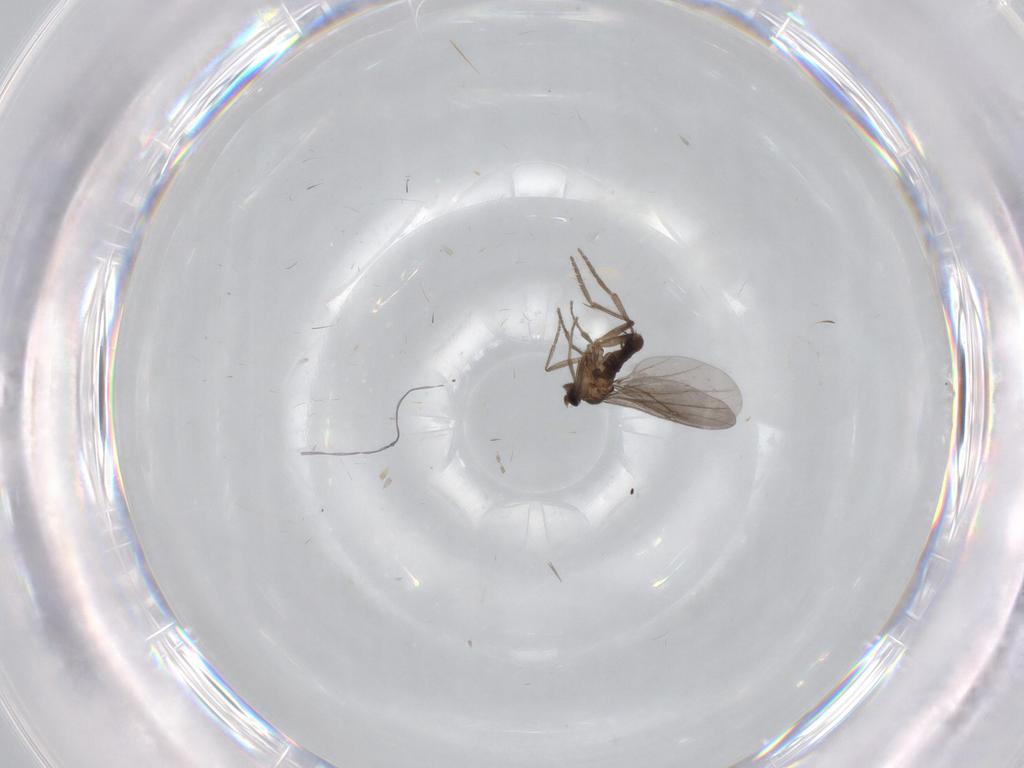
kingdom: Animalia
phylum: Arthropoda
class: Insecta
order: Diptera
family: Phoridae
